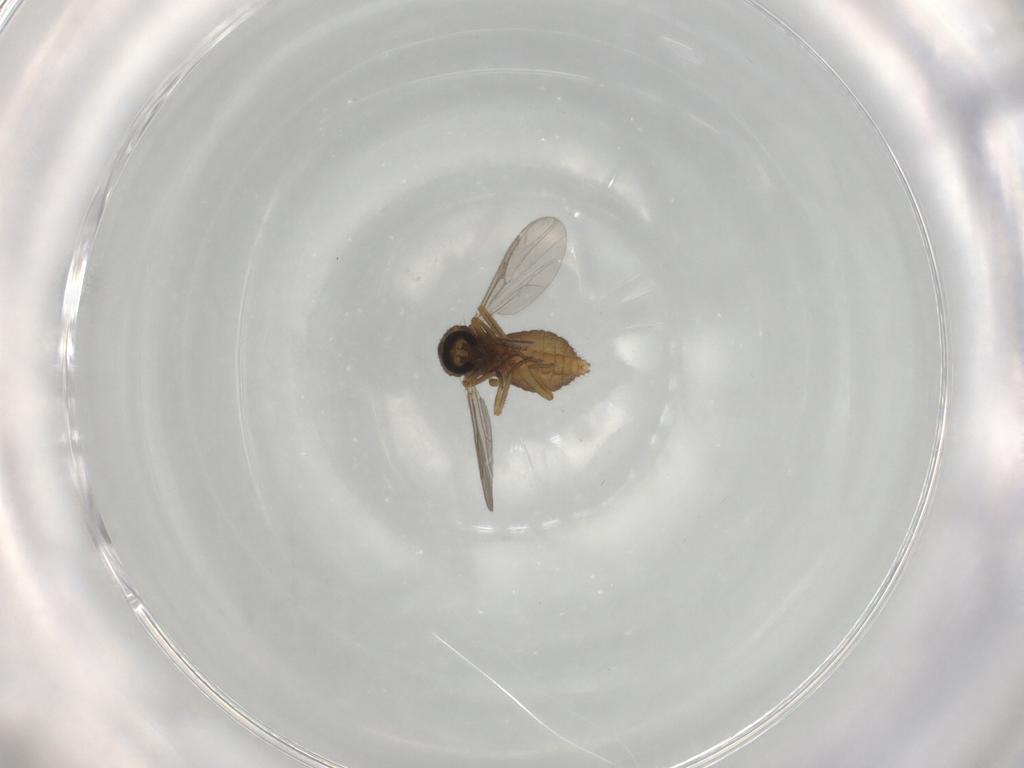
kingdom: Animalia
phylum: Arthropoda
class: Insecta
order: Diptera
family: Ceratopogonidae
